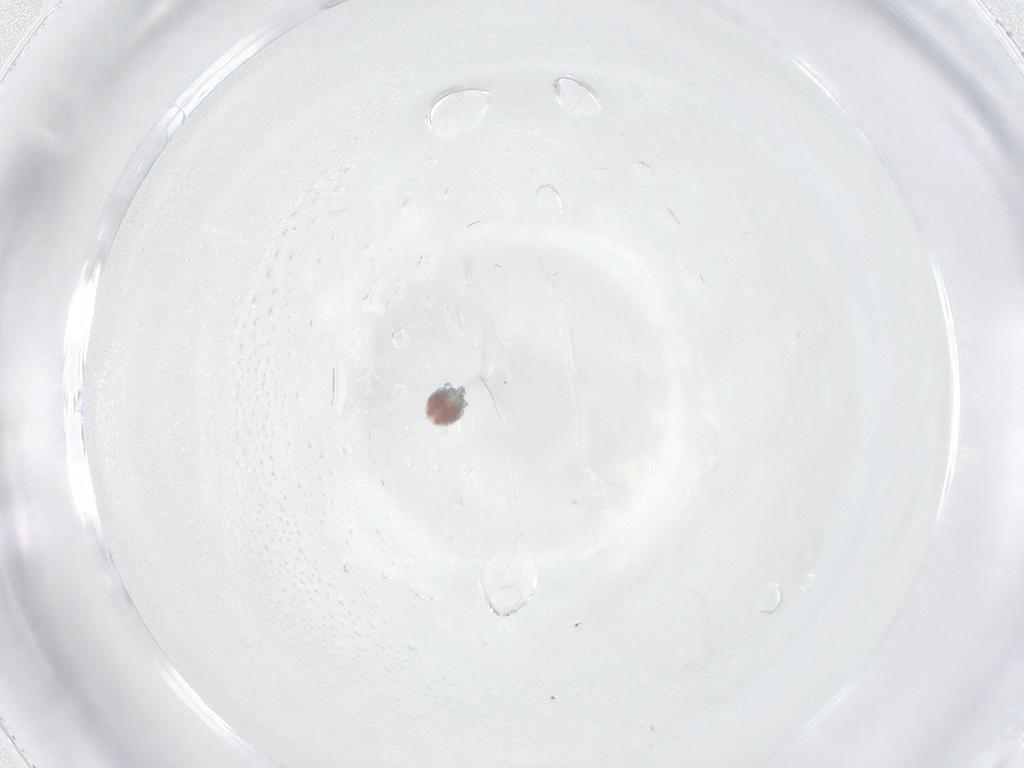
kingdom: Animalia
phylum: Arthropoda
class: Arachnida
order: Trombidiformes
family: Pionidae
